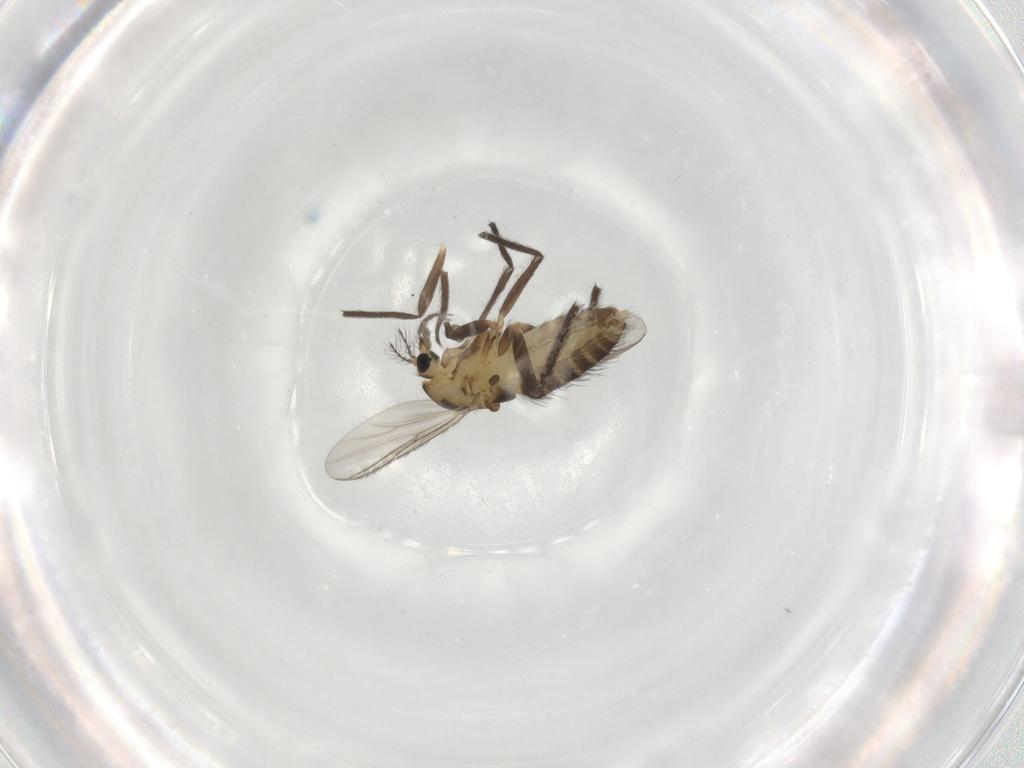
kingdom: Animalia
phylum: Arthropoda
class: Insecta
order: Diptera
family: Chironomidae
